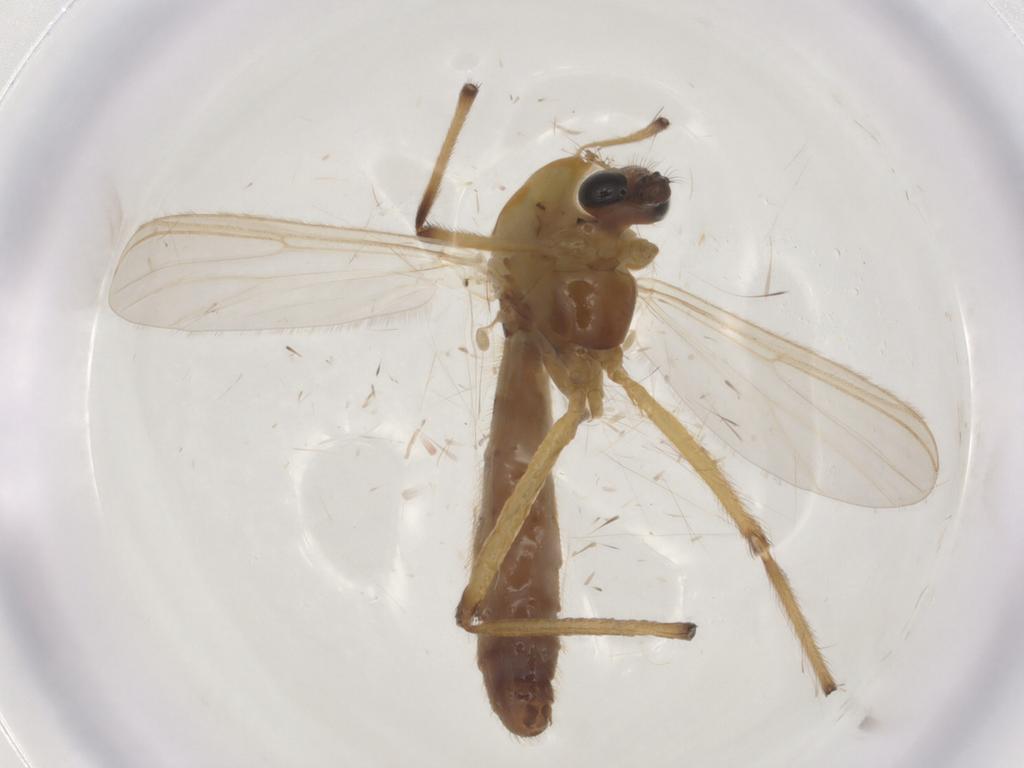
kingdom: Animalia
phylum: Arthropoda
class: Insecta
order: Diptera
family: Chironomidae
